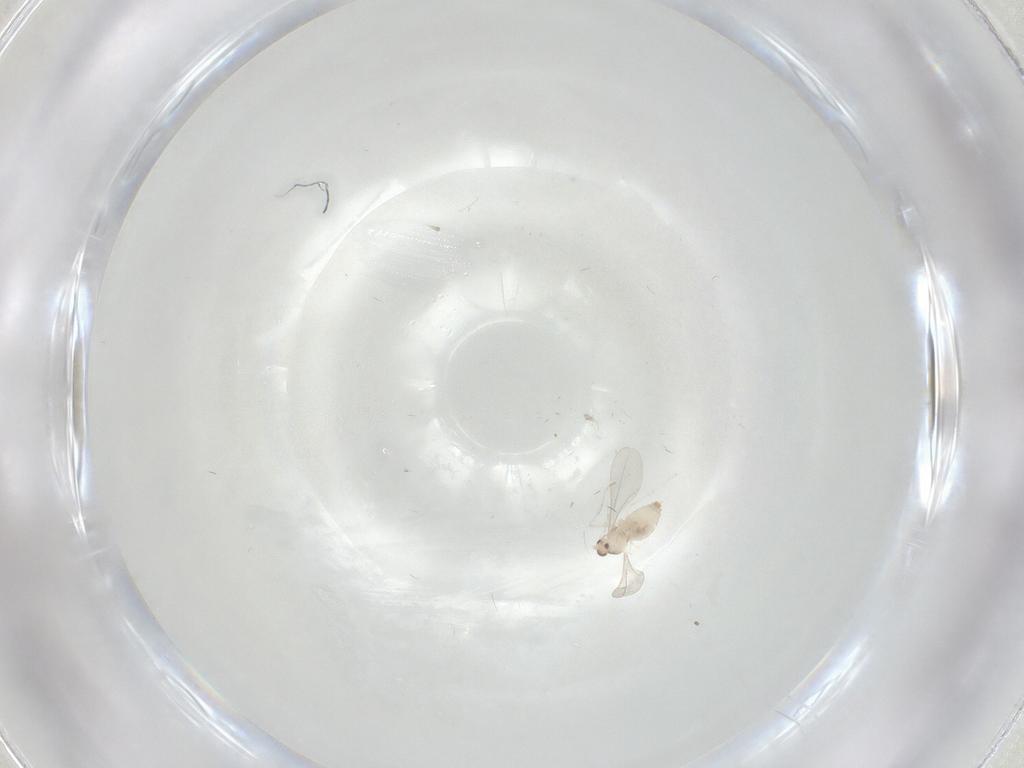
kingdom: Animalia
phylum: Arthropoda
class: Insecta
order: Diptera
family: Cecidomyiidae
